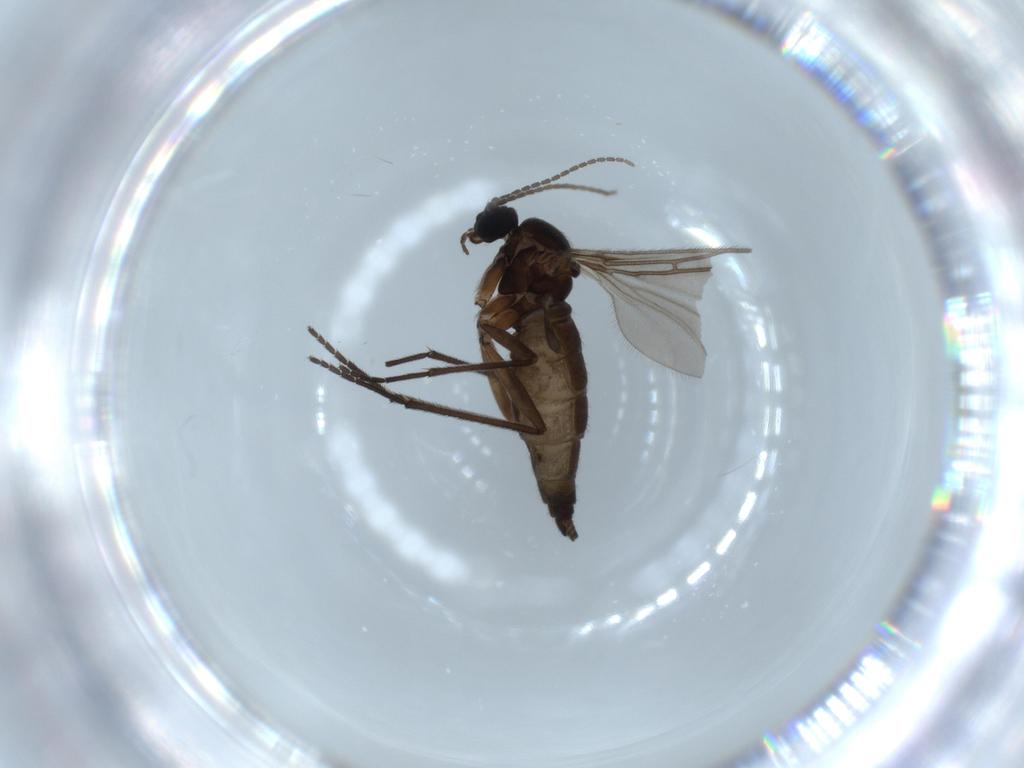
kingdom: Animalia
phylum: Arthropoda
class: Insecta
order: Diptera
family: Sciaridae
